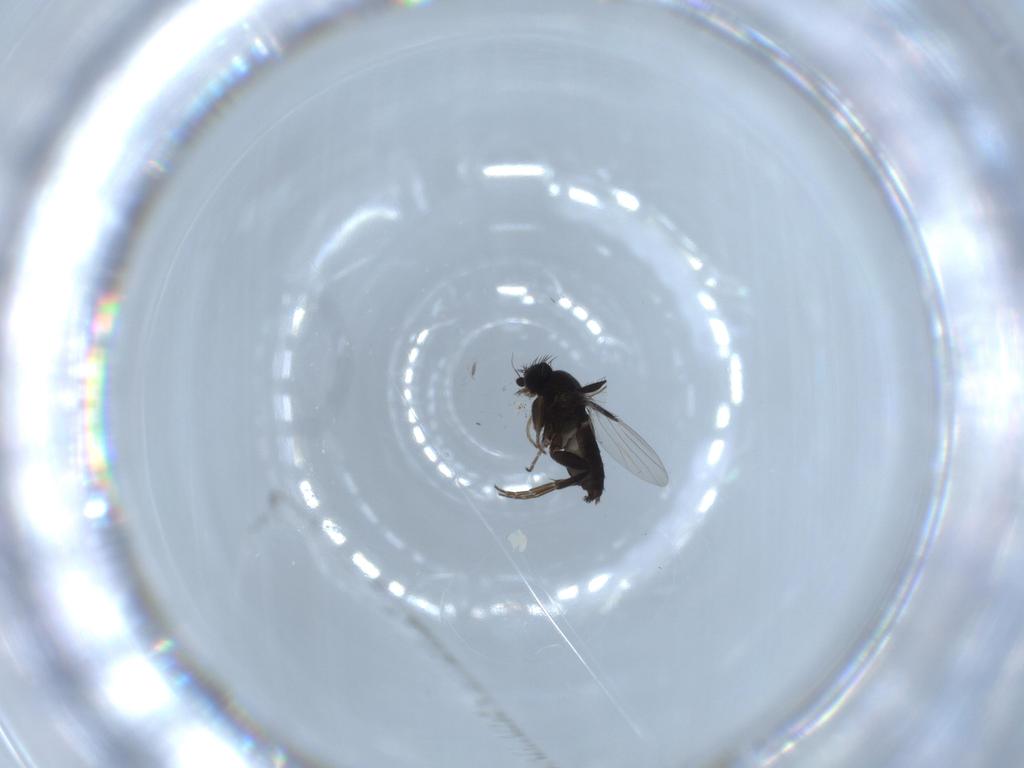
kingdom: Animalia
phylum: Arthropoda
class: Insecta
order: Diptera
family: Phoridae
